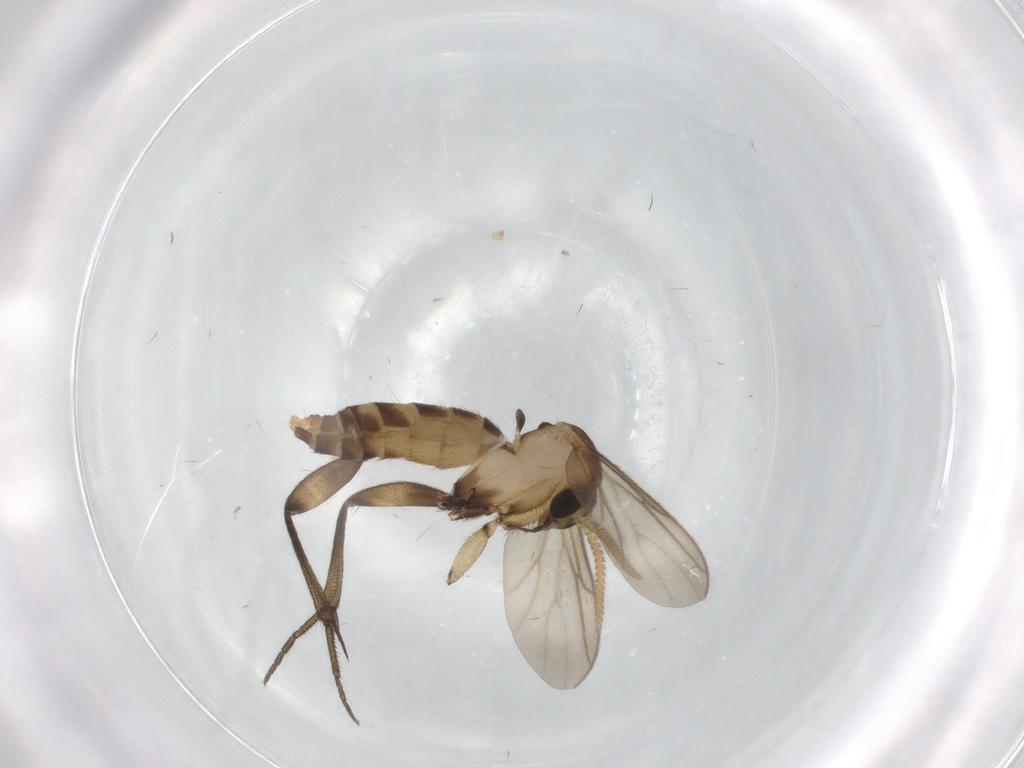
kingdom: Animalia
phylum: Arthropoda
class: Insecta
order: Diptera
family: Mycetophilidae
